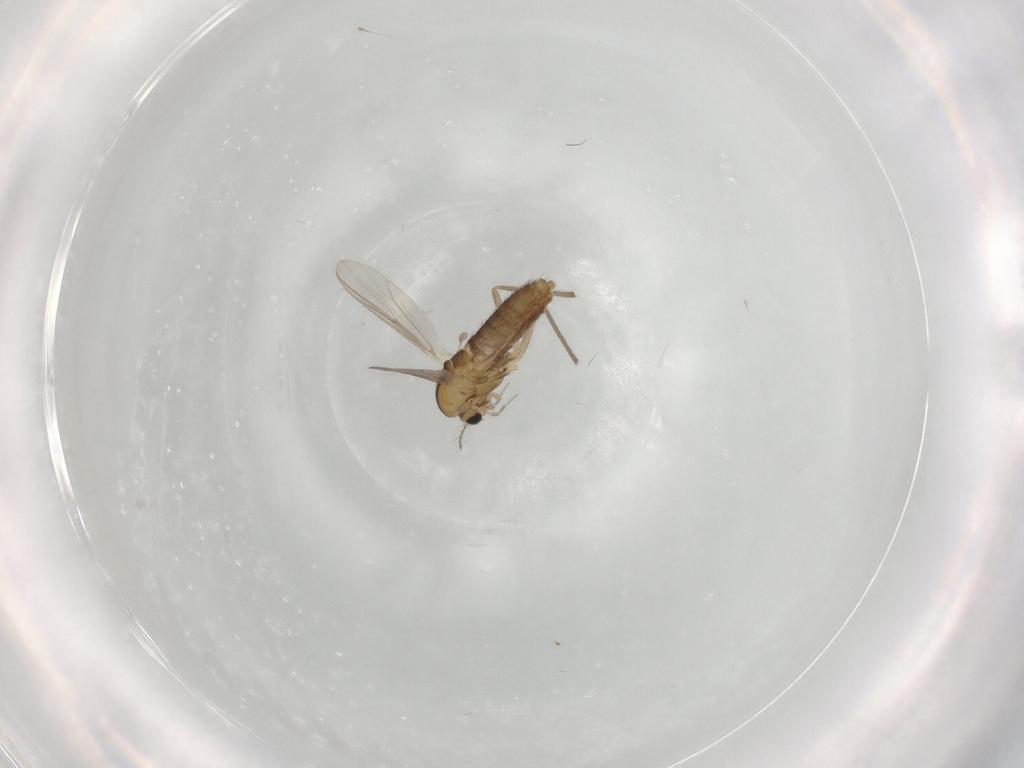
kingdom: Animalia
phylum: Arthropoda
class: Insecta
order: Diptera
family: Chironomidae
